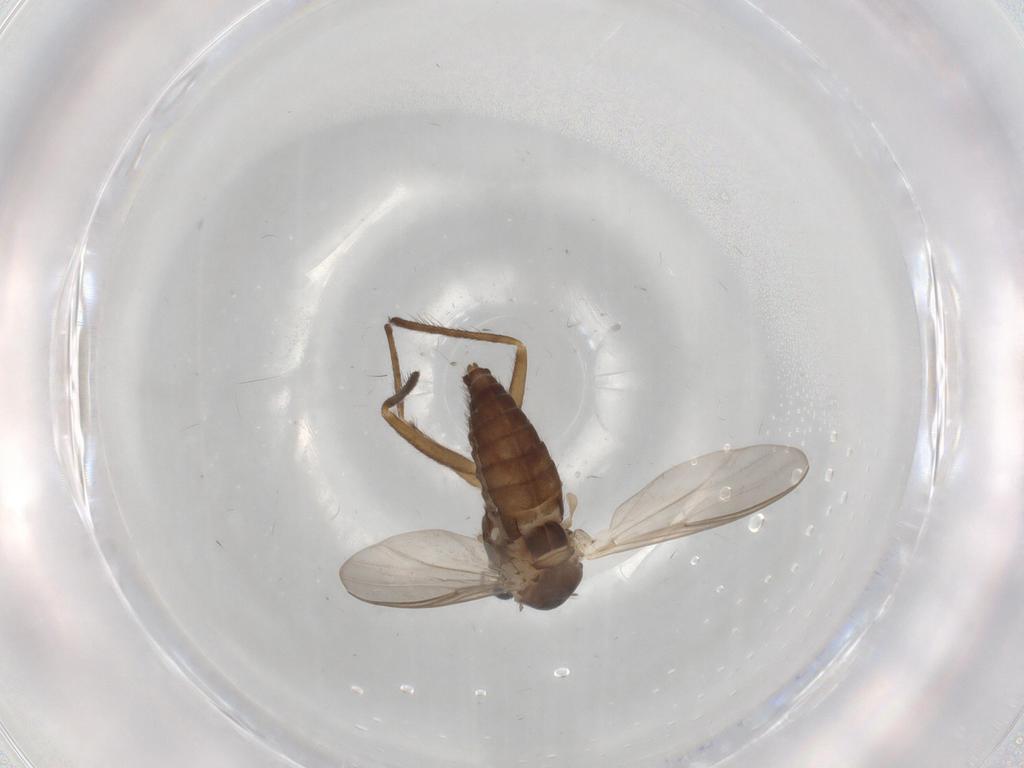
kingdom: Animalia
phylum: Arthropoda
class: Insecta
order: Diptera
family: Chironomidae
